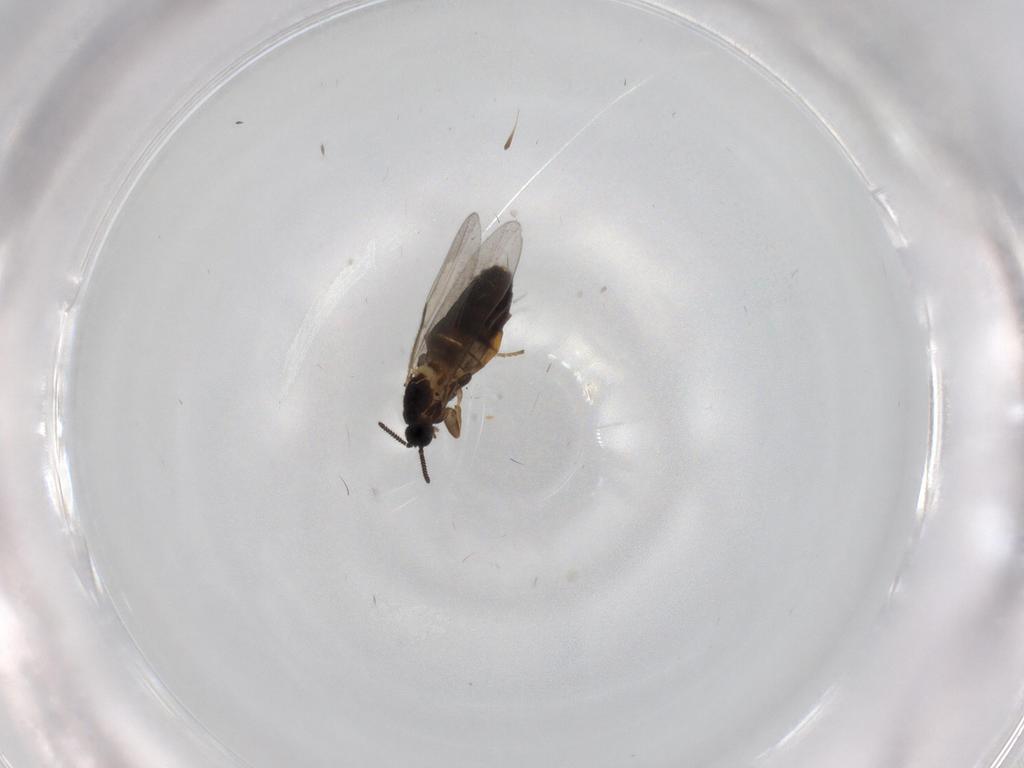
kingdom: Animalia
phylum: Arthropoda
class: Insecta
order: Diptera
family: Scatopsidae
